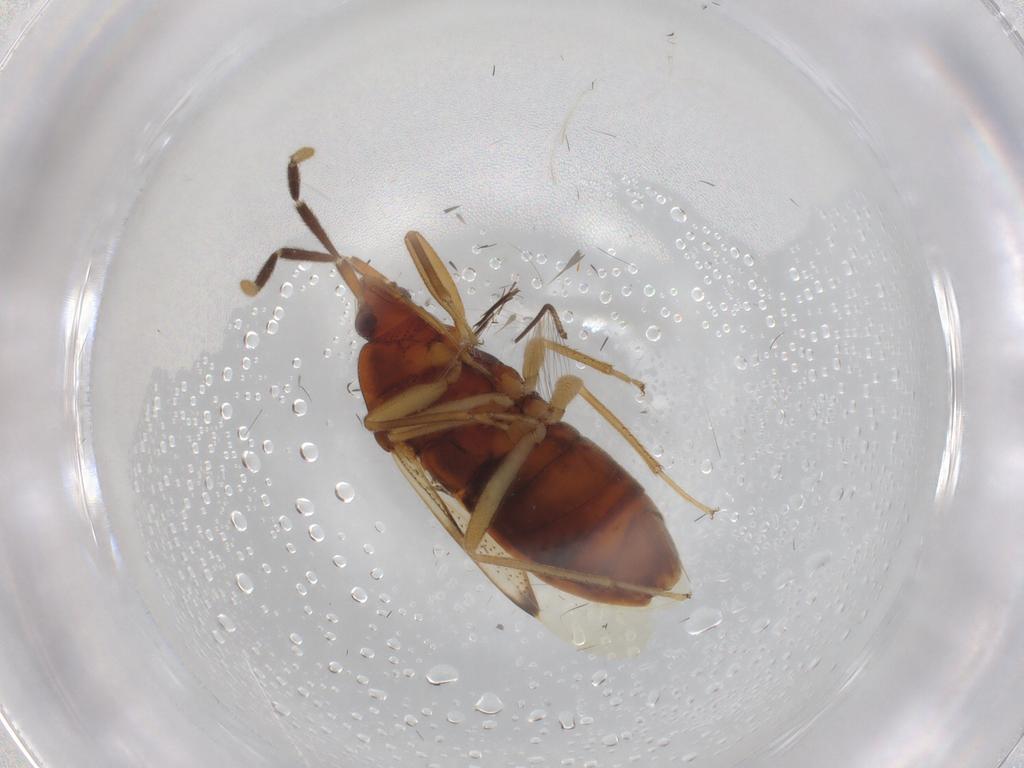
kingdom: Animalia
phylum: Arthropoda
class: Insecta
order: Hemiptera
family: Rhyparochromidae
